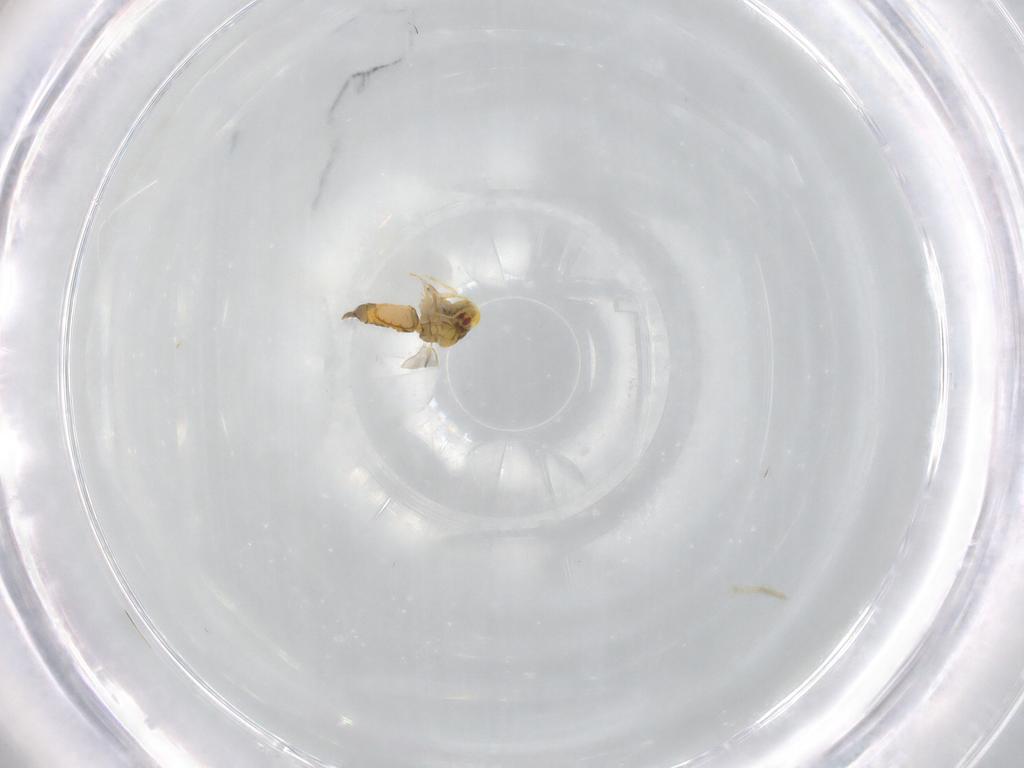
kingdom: Animalia
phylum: Arthropoda
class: Insecta
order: Hemiptera
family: Aleyrodidae
